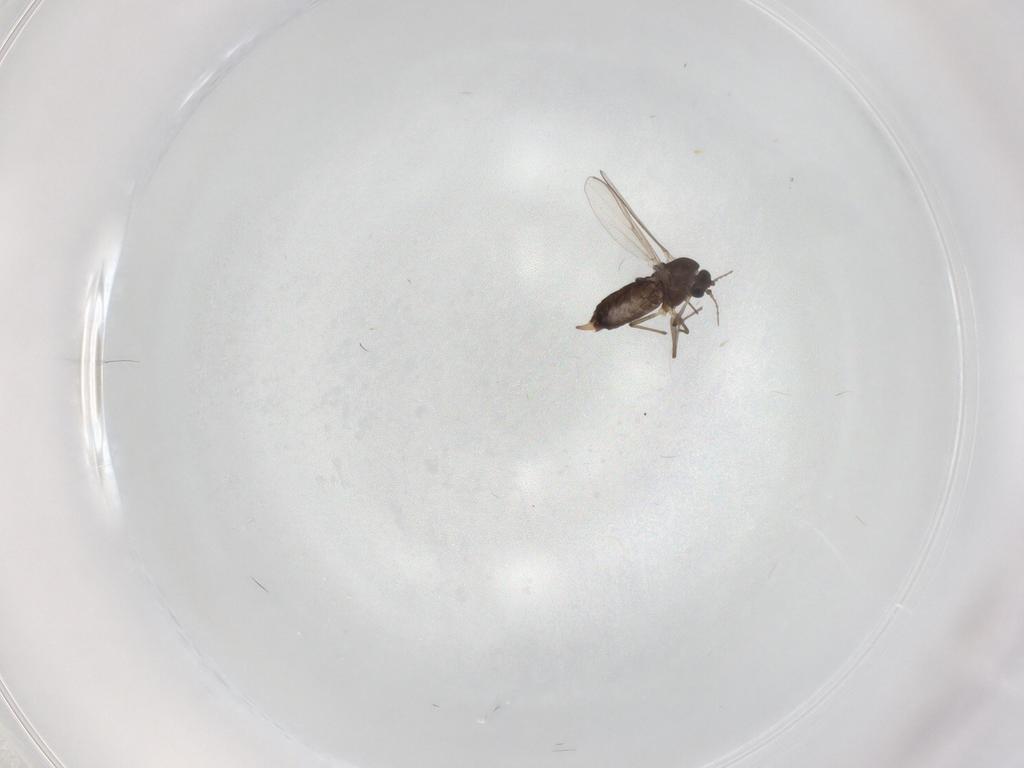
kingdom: Animalia
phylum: Arthropoda
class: Insecta
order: Diptera
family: Chironomidae
